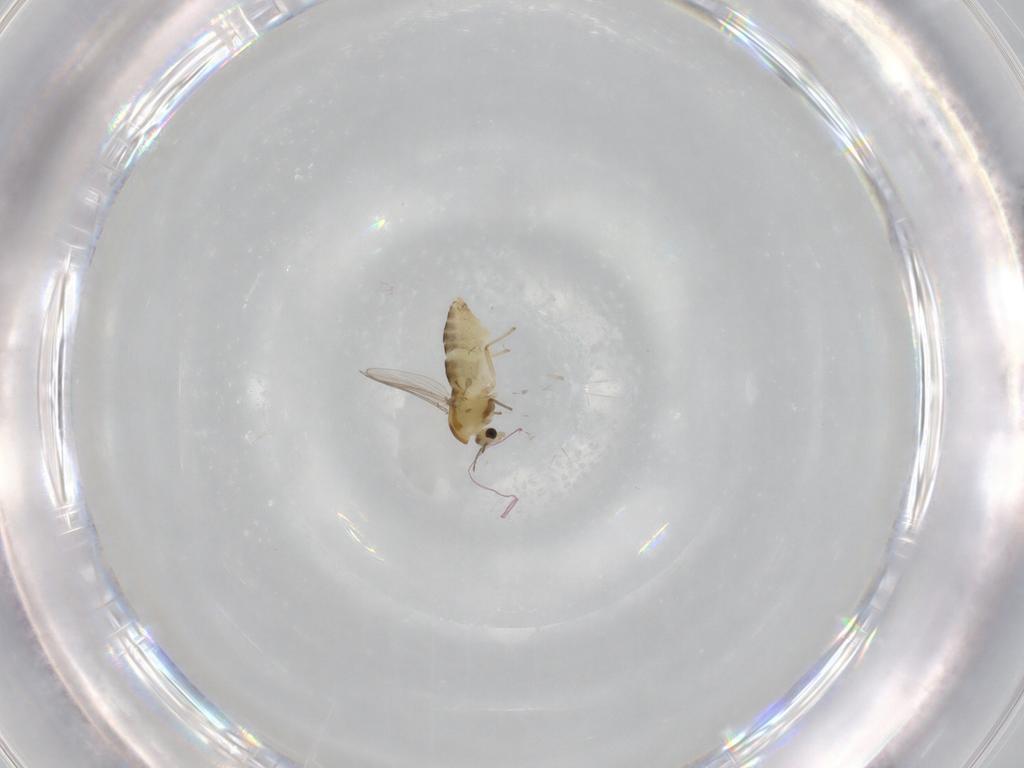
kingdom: Animalia
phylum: Arthropoda
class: Insecta
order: Diptera
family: Chironomidae
